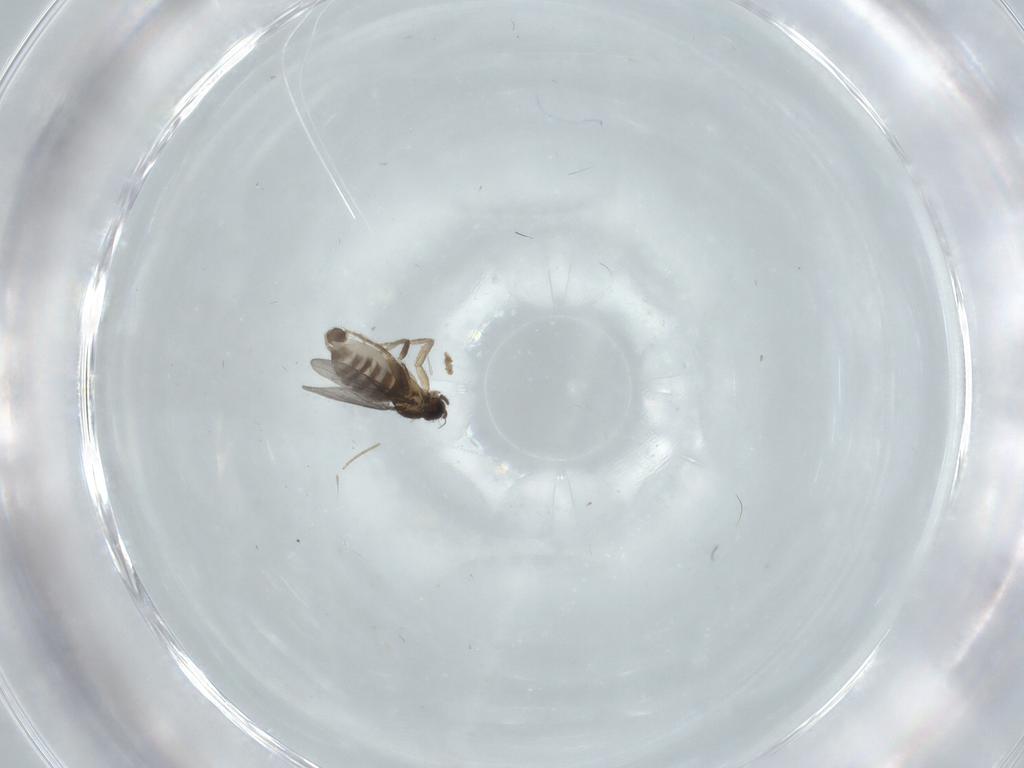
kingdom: Animalia
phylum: Arthropoda
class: Insecta
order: Diptera
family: Chironomidae
